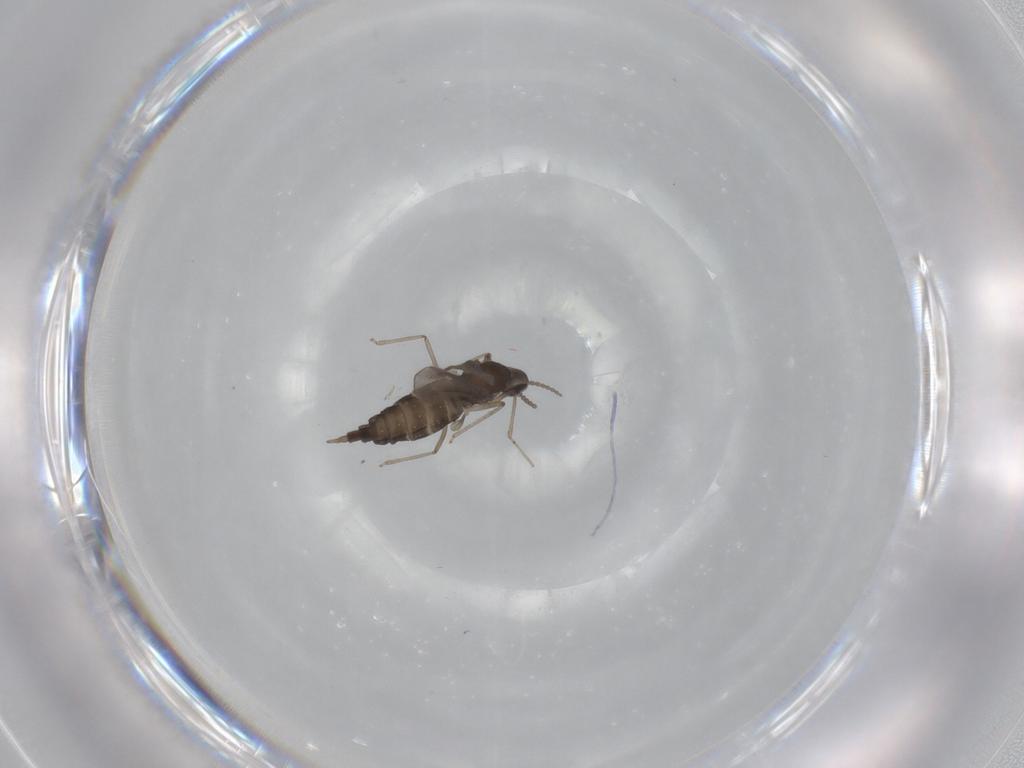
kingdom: Animalia
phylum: Arthropoda
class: Insecta
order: Diptera
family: Cecidomyiidae
